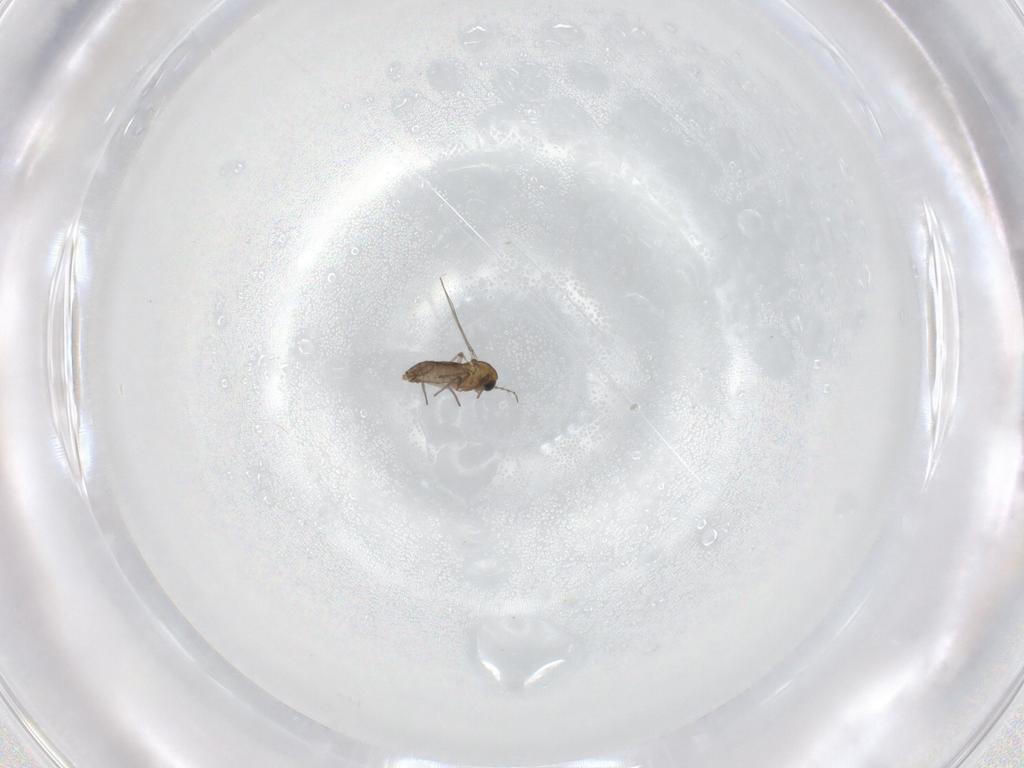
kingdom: Animalia
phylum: Arthropoda
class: Insecta
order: Diptera
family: Chironomidae
